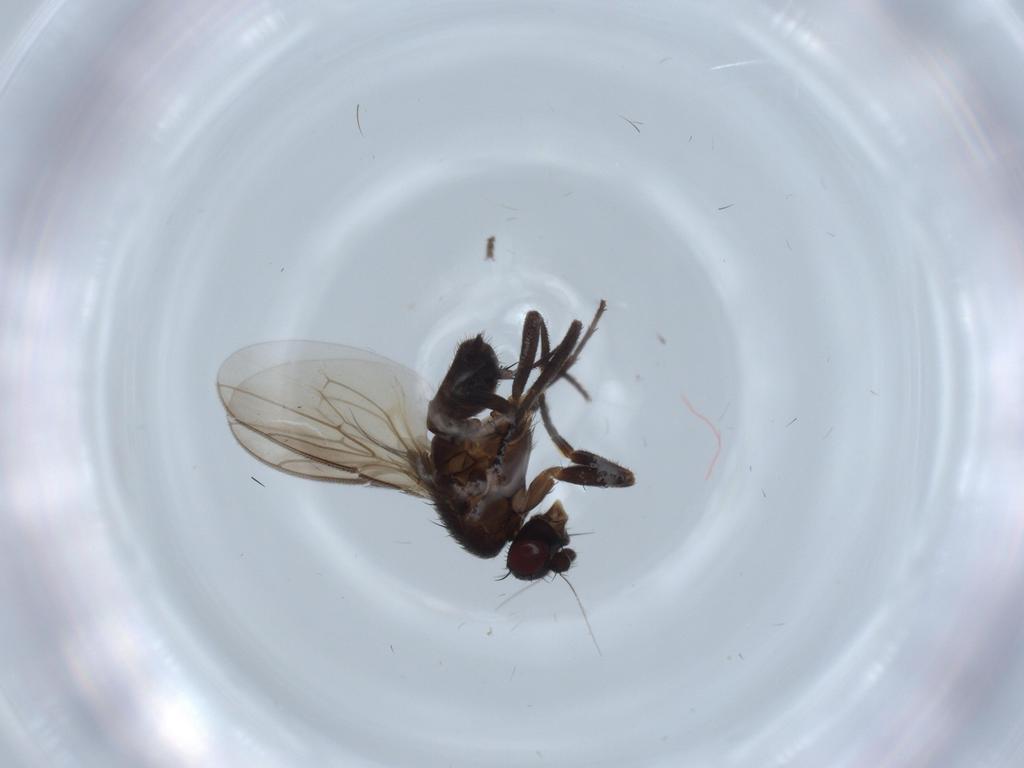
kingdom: Animalia
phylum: Arthropoda
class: Insecta
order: Diptera
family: Sphaeroceridae
